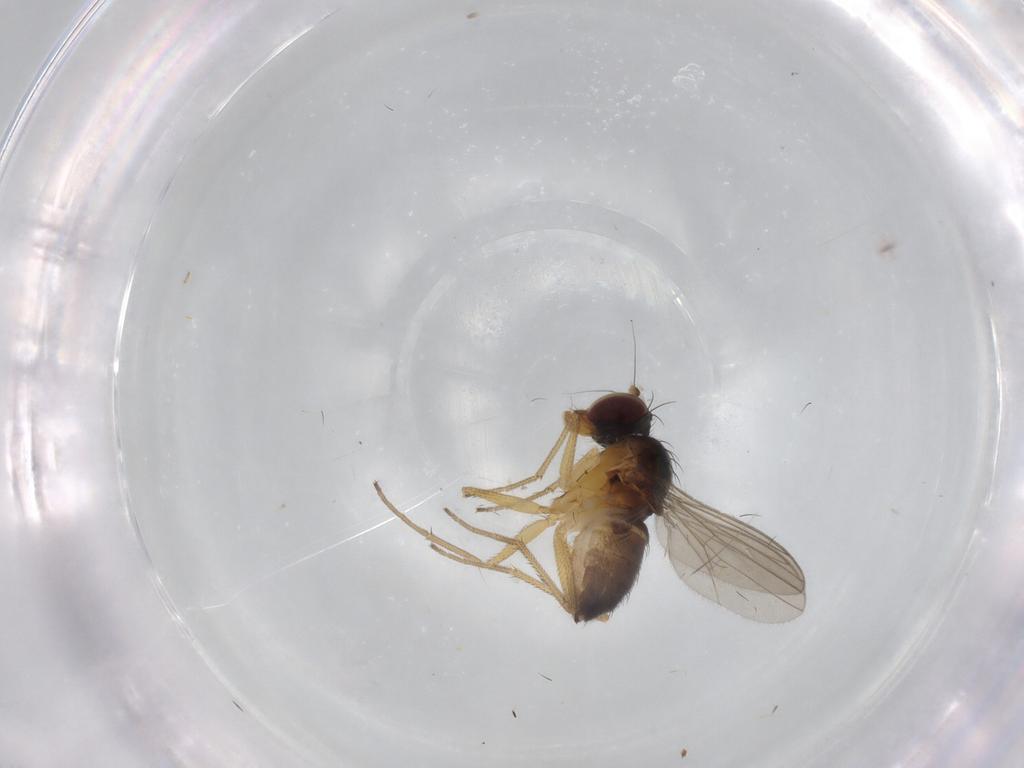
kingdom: Animalia
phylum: Arthropoda
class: Insecta
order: Diptera
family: Dolichopodidae
